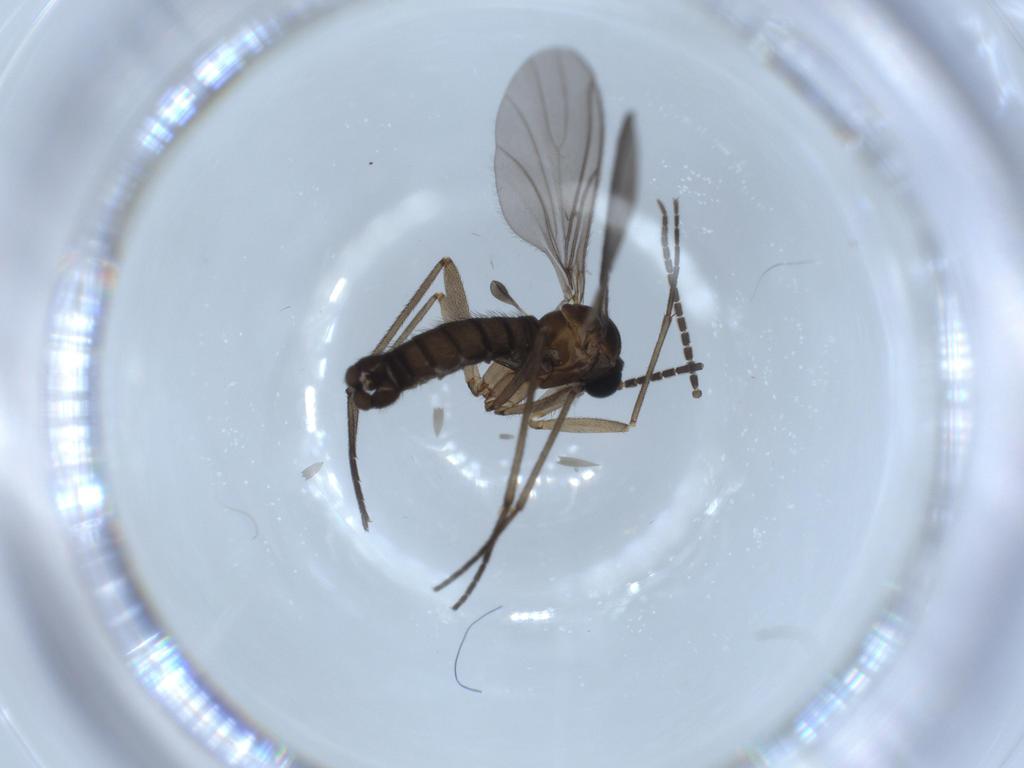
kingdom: Animalia
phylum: Arthropoda
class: Insecta
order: Diptera
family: Sciaridae
